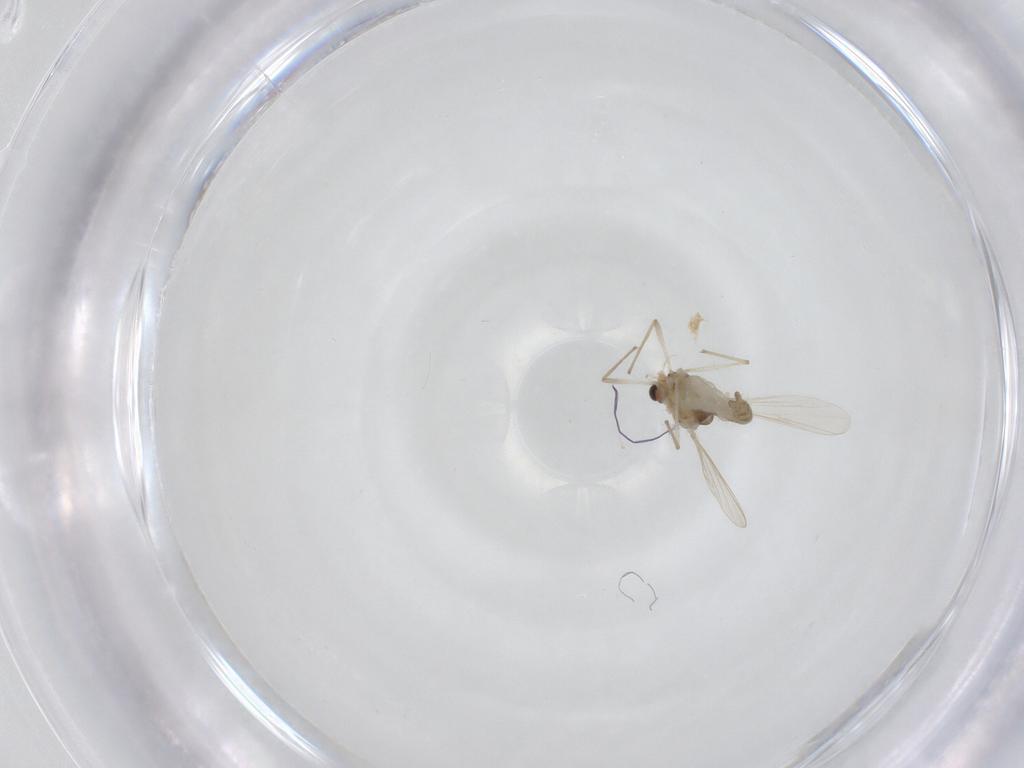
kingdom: Animalia
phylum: Arthropoda
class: Insecta
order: Diptera
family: Chironomidae
